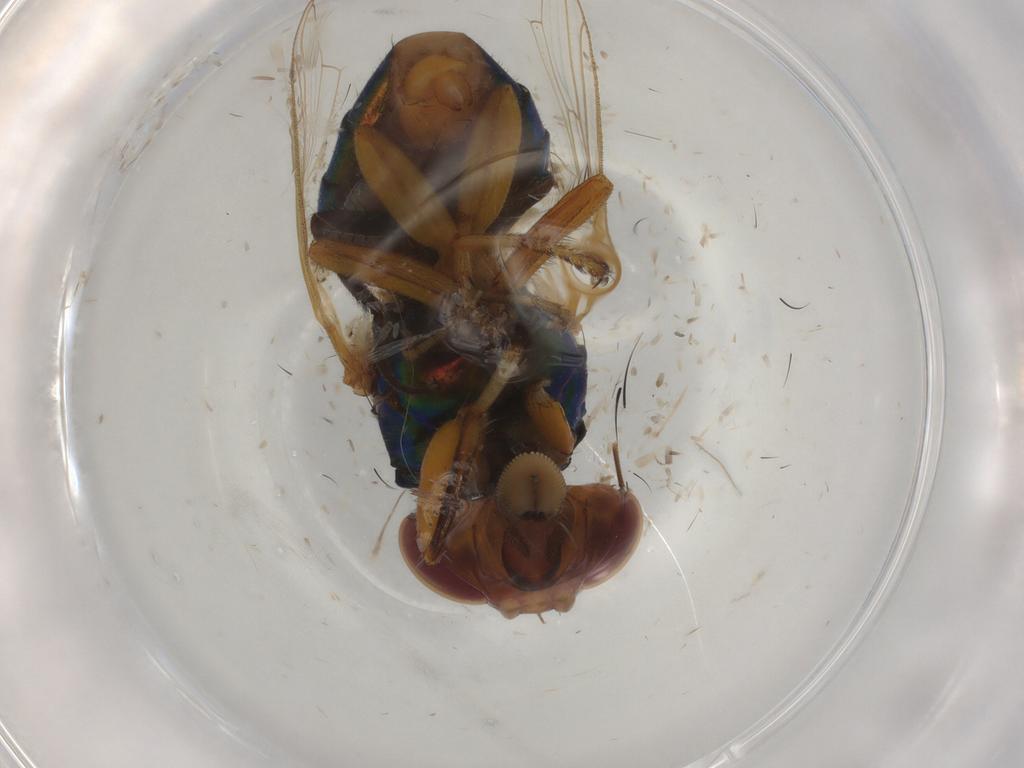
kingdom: Animalia
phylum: Arthropoda
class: Insecta
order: Diptera
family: Ulidiidae
